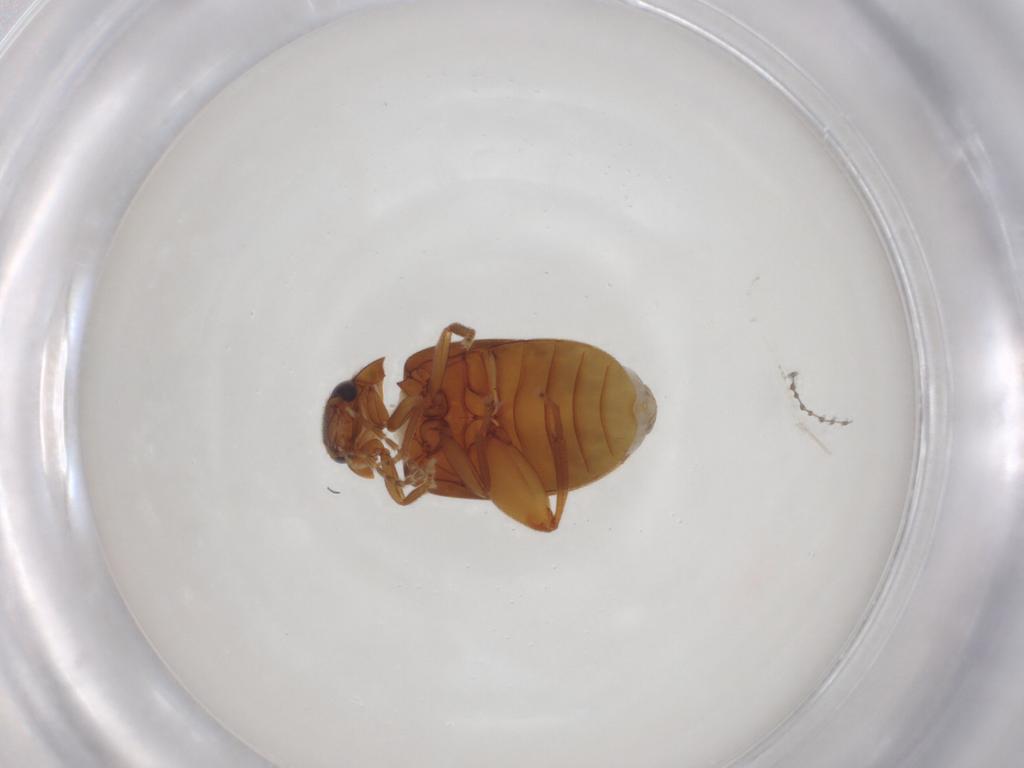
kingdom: Animalia
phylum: Arthropoda
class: Insecta
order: Coleoptera
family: Scirtidae
